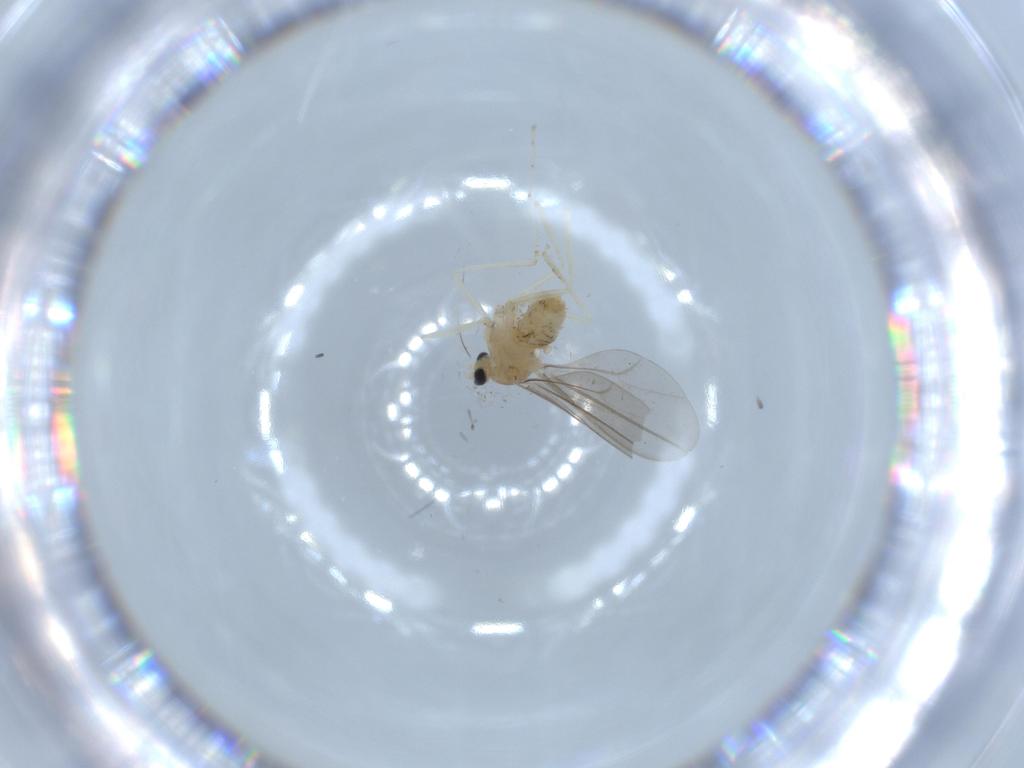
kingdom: Animalia
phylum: Arthropoda
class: Insecta
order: Diptera
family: Cecidomyiidae
